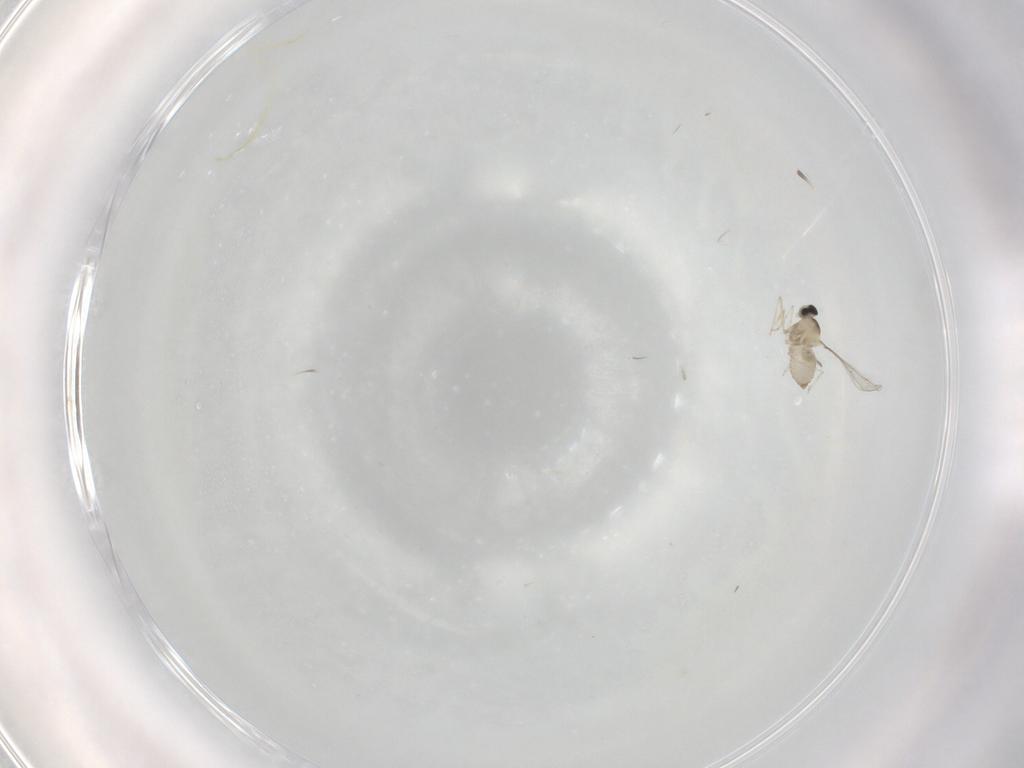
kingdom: Animalia
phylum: Arthropoda
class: Insecta
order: Diptera
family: Cecidomyiidae
